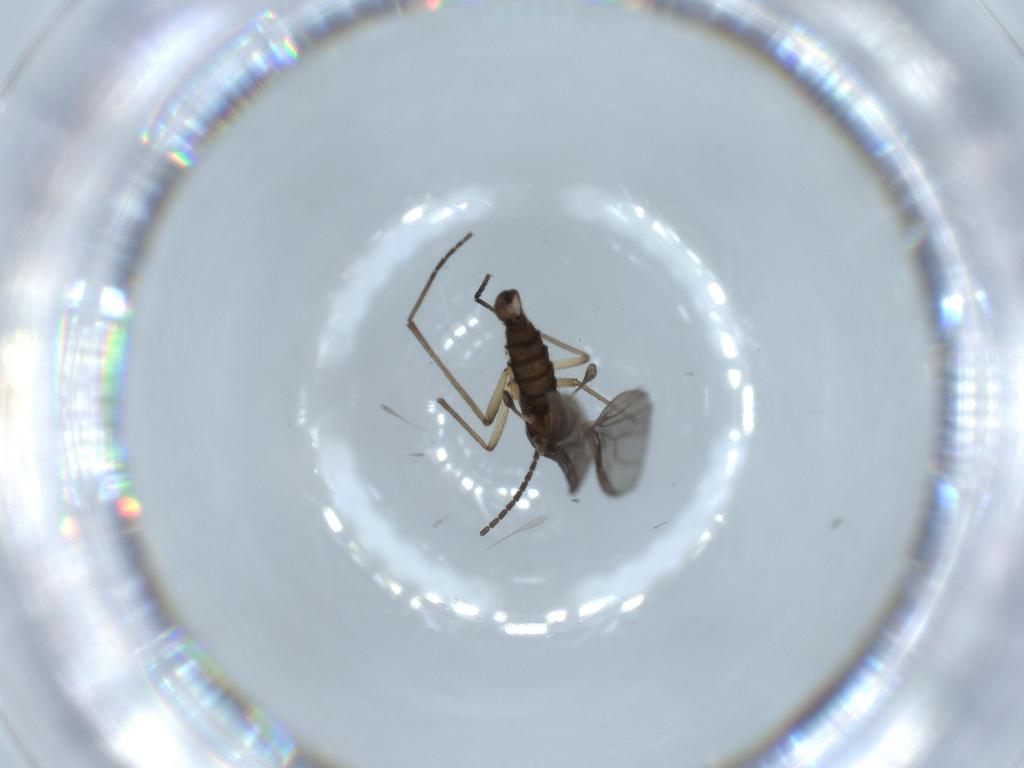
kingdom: Animalia
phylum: Arthropoda
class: Insecta
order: Diptera
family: Sciaridae
